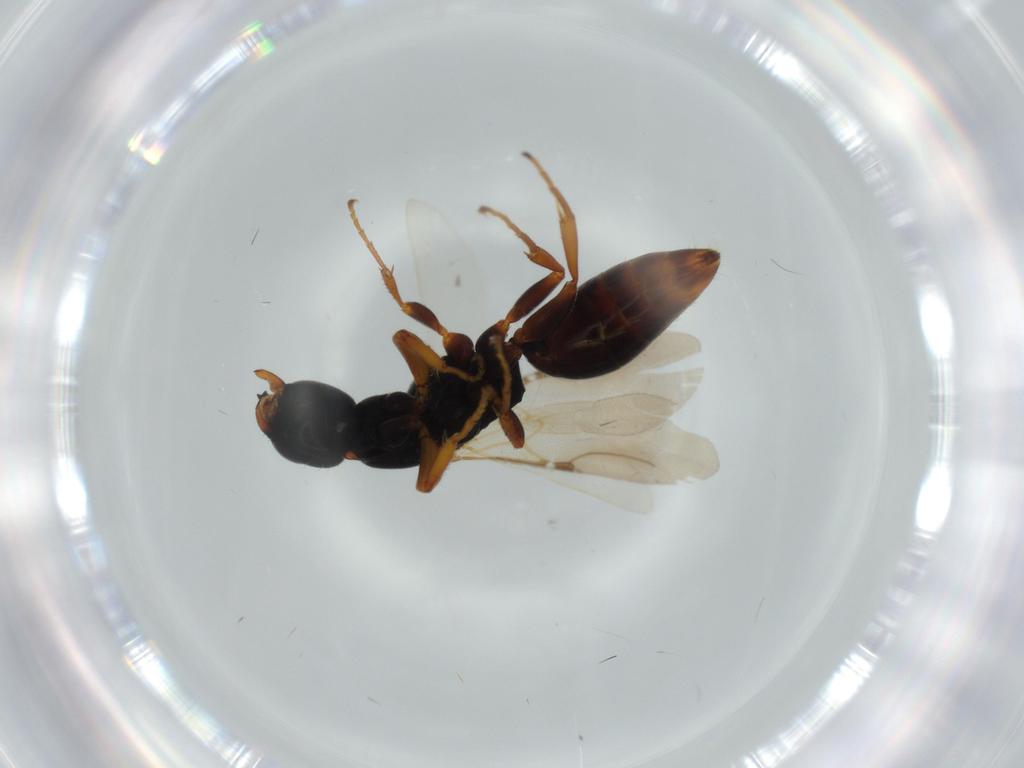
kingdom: Animalia
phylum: Arthropoda
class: Insecta
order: Hymenoptera
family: Bethylidae
